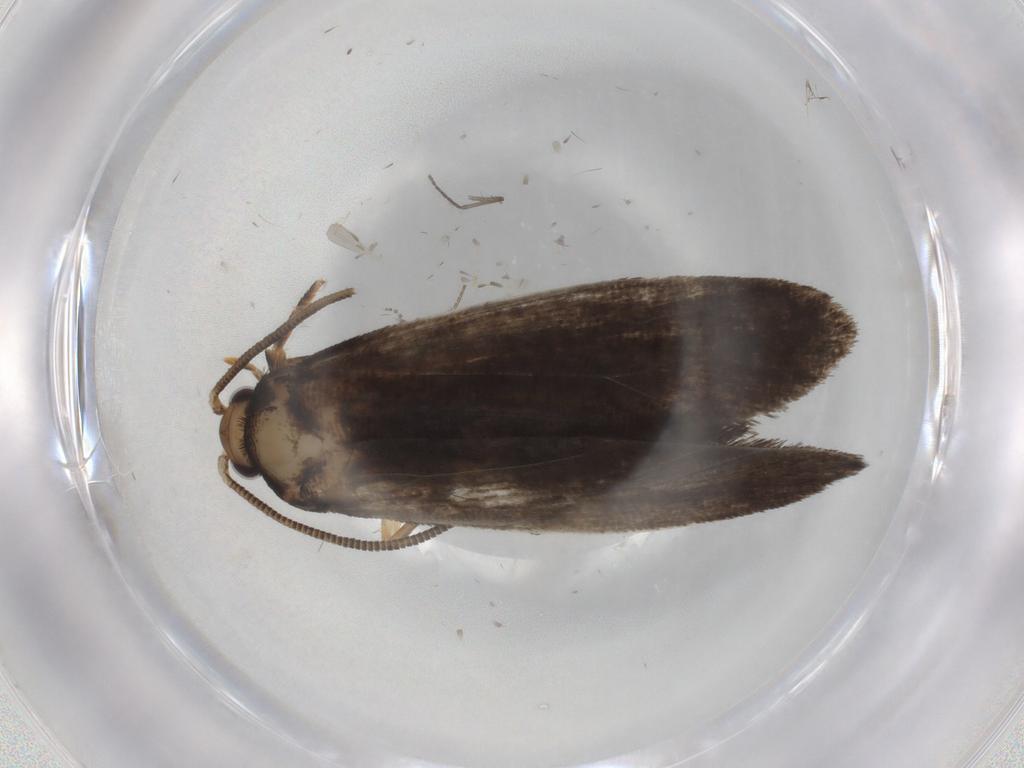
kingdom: Animalia
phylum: Arthropoda
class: Insecta
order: Lepidoptera
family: Tineidae
